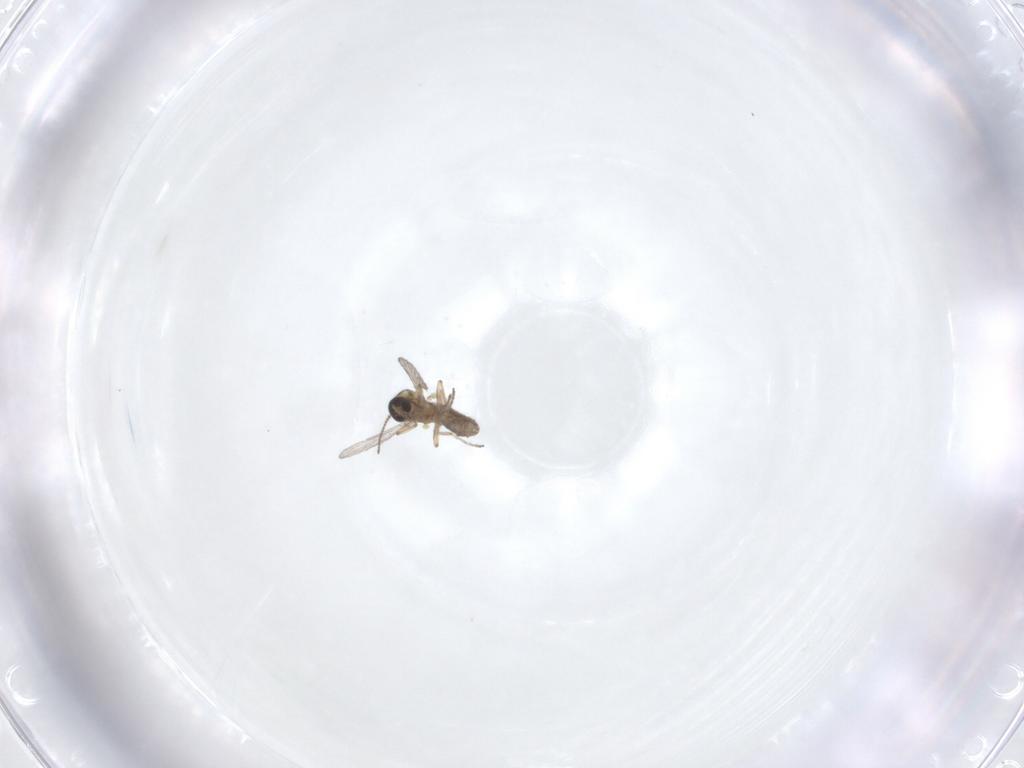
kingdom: Animalia
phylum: Arthropoda
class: Insecta
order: Diptera
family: Ceratopogonidae
